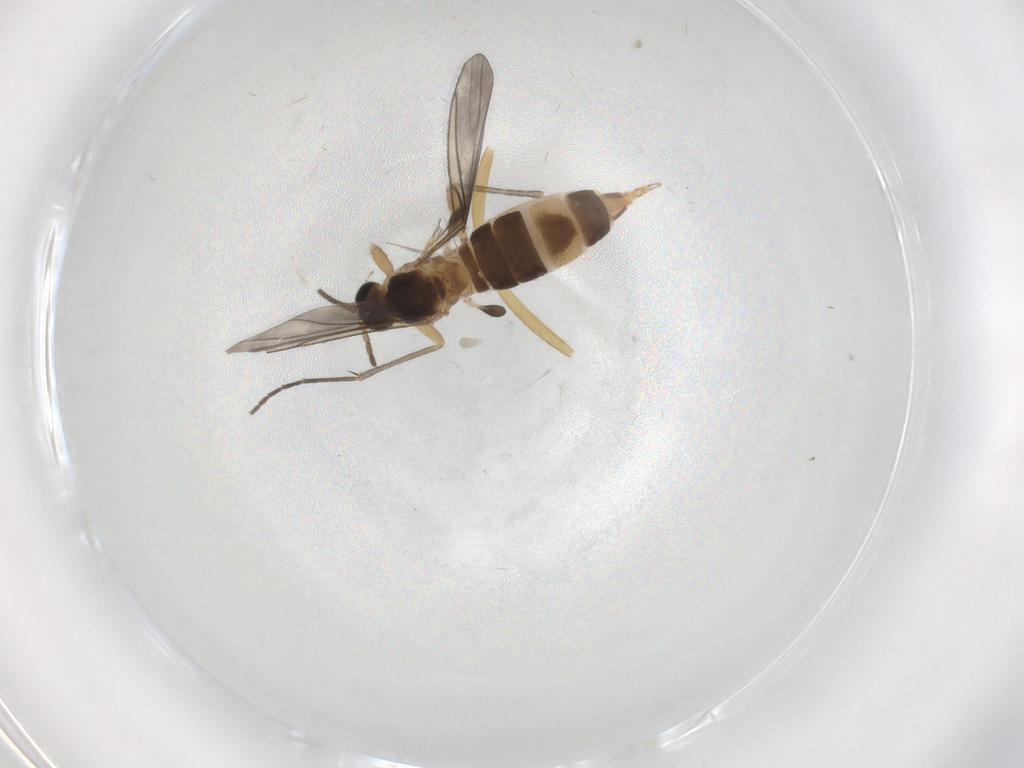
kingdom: Animalia
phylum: Arthropoda
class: Insecta
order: Diptera
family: Sciaridae
